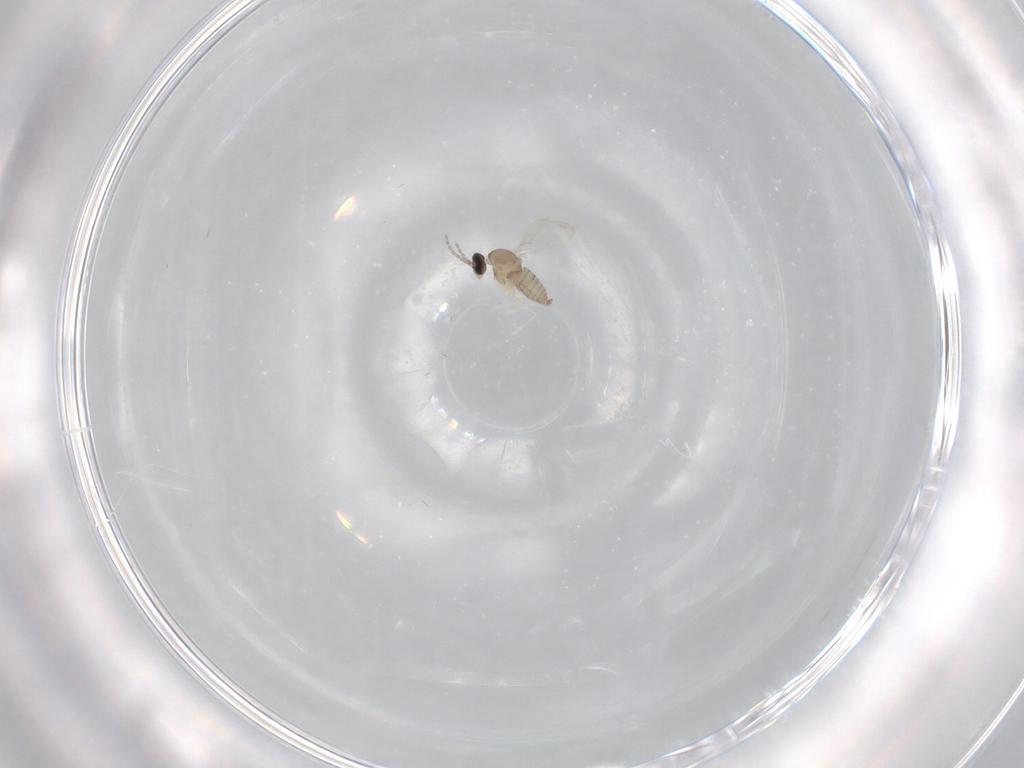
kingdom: Animalia
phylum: Arthropoda
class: Insecta
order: Diptera
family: Cecidomyiidae
